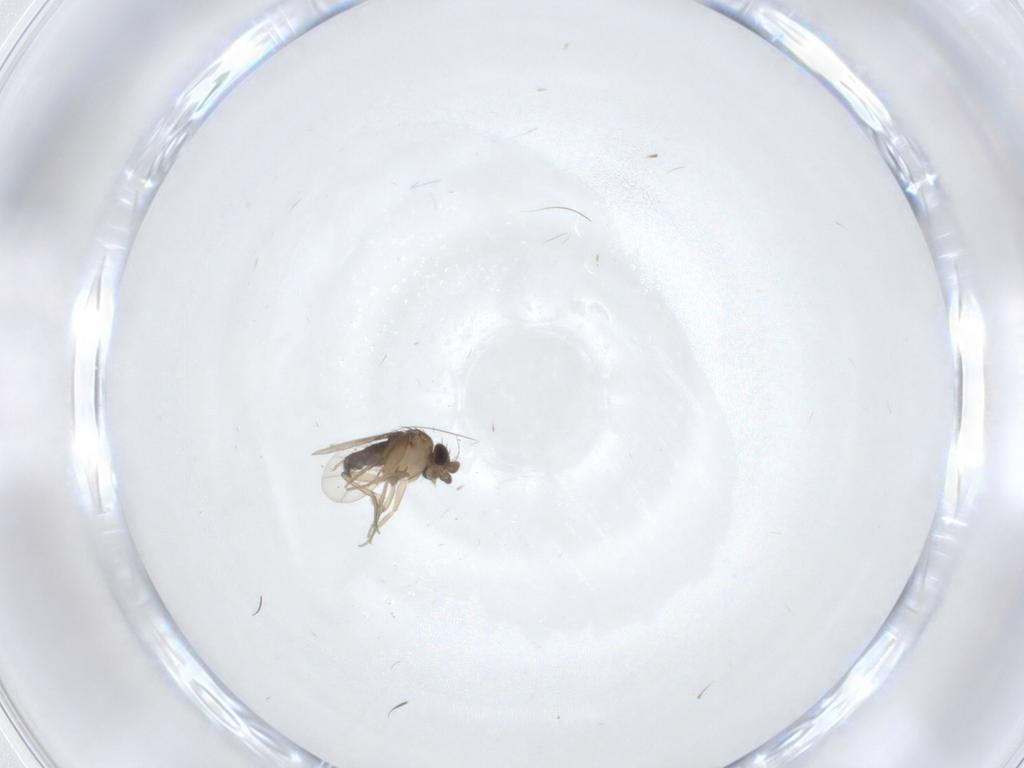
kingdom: Animalia
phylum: Arthropoda
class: Insecta
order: Diptera
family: Phoridae
